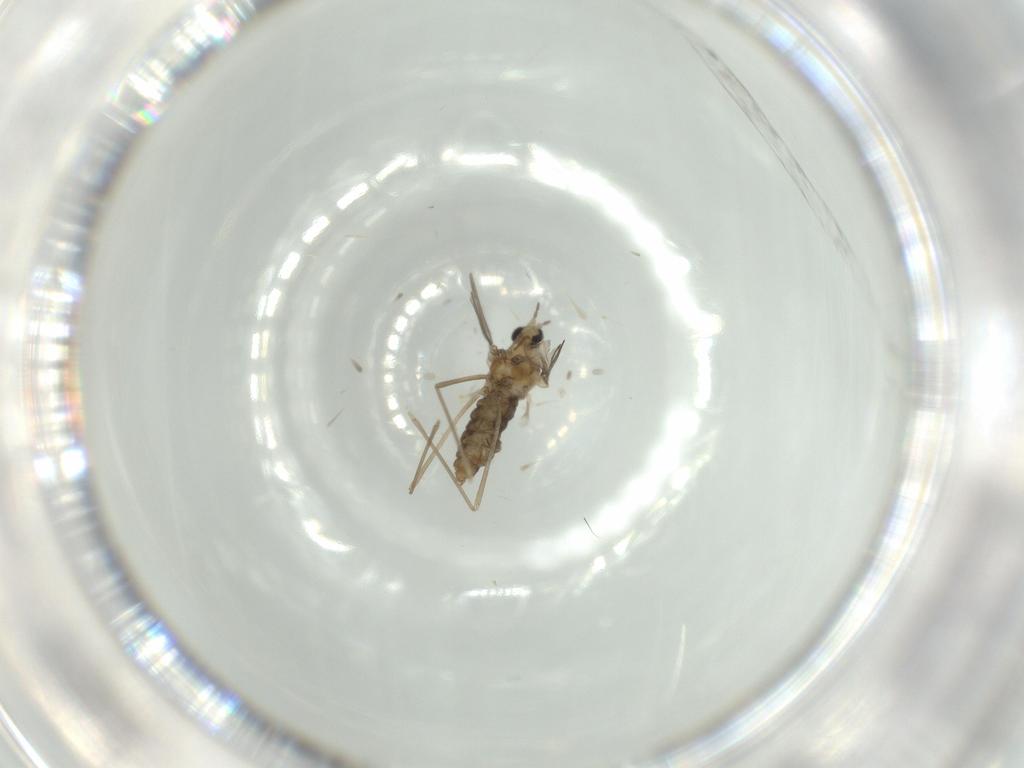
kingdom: Animalia
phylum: Arthropoda
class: Insecta
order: Diptera
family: Cecidomyiidae
